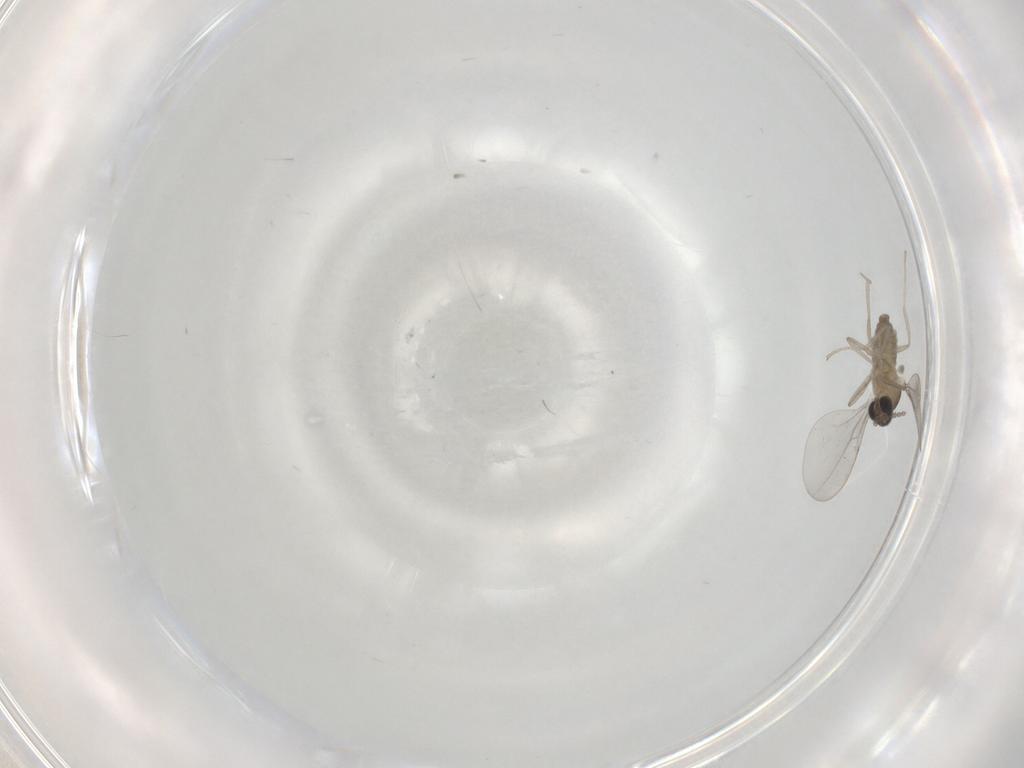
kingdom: Animalia
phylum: Arthropoda
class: Insecta
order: Diptera
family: Cecidomyiidae
